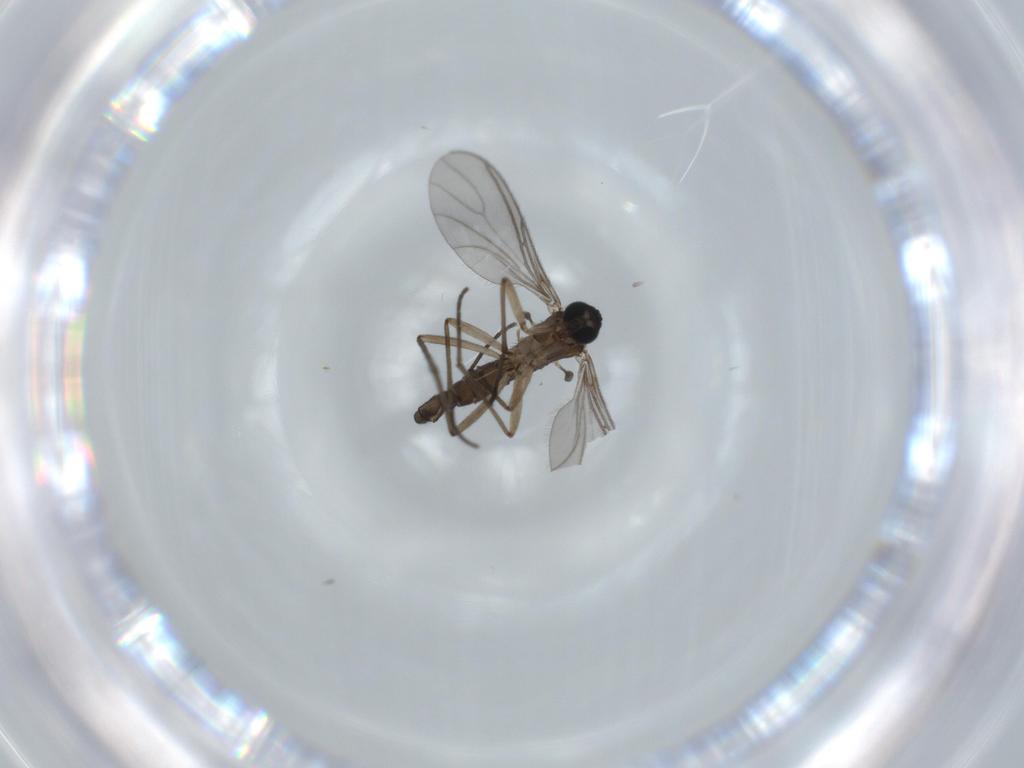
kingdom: Animalia
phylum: Arthropoda
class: Insecta
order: Diptera
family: Sciaridae
